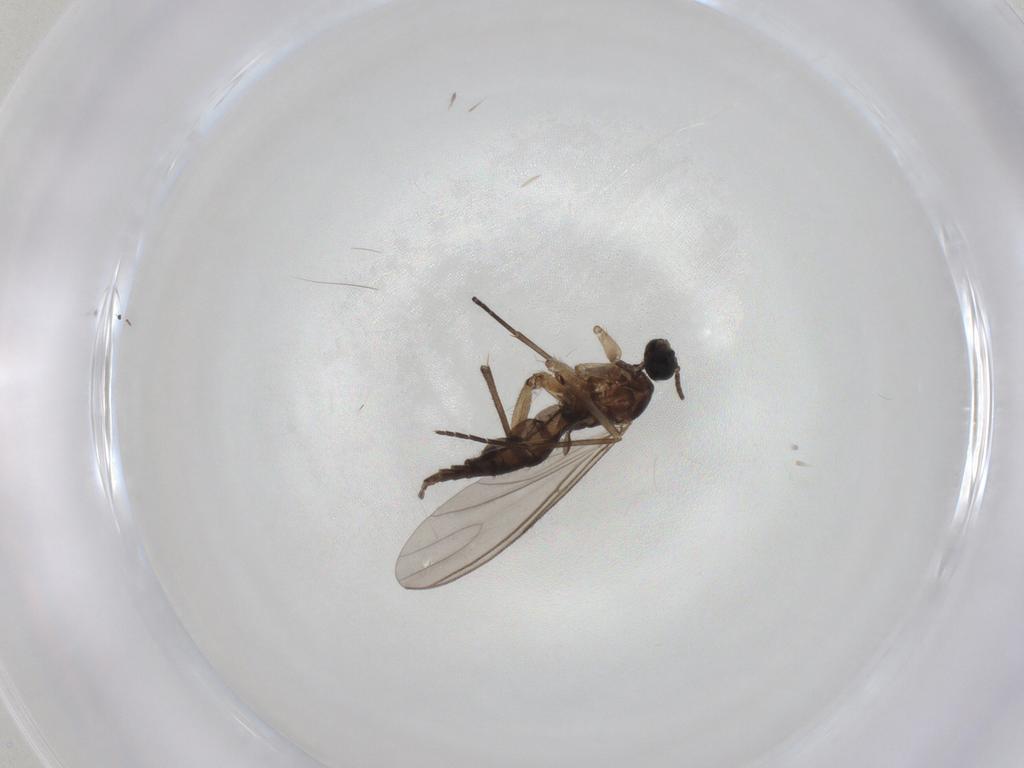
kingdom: Animalia
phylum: Arthropoda
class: Insecta
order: Diptera
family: Sciaridae
